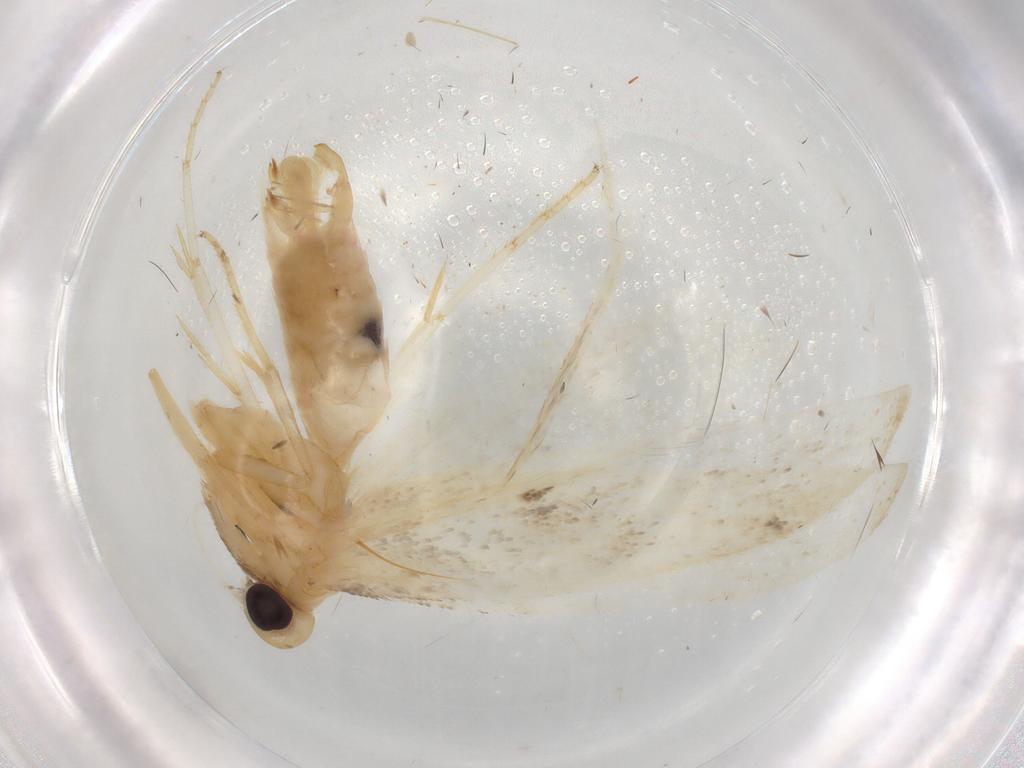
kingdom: Animalia
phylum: Arthropoda
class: Insecta
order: Lepidoptera
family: Gelechiidae
